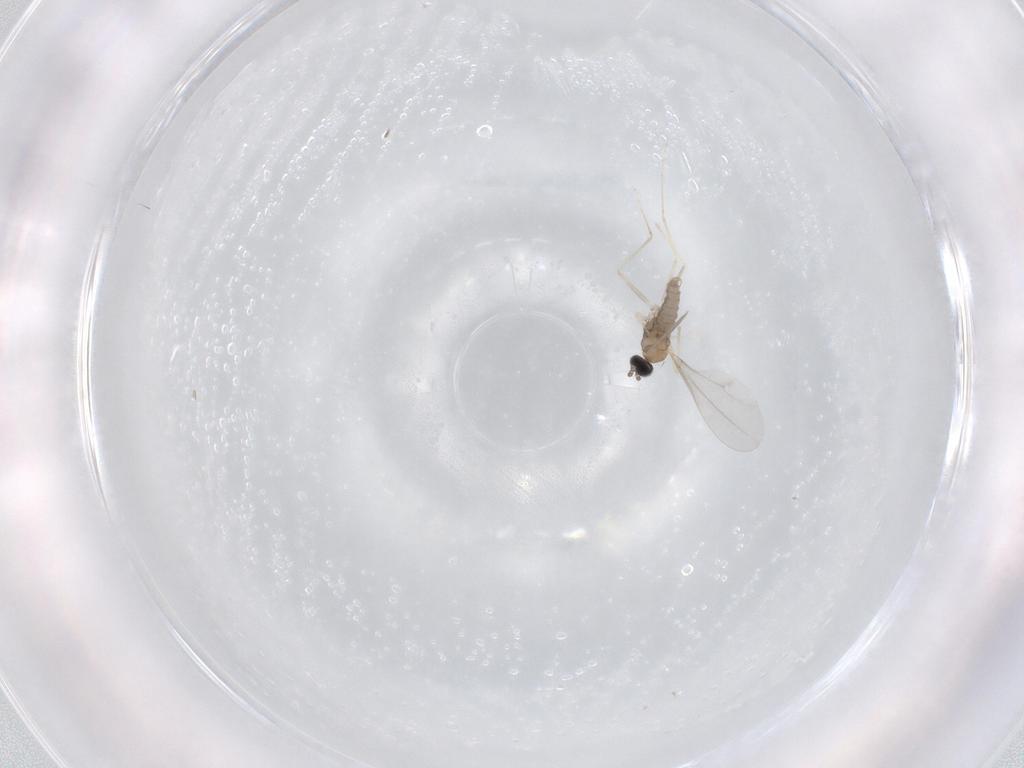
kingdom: Animalia
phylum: Arthropoda
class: Insecta
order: Diptera
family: Cecidomyiidae
